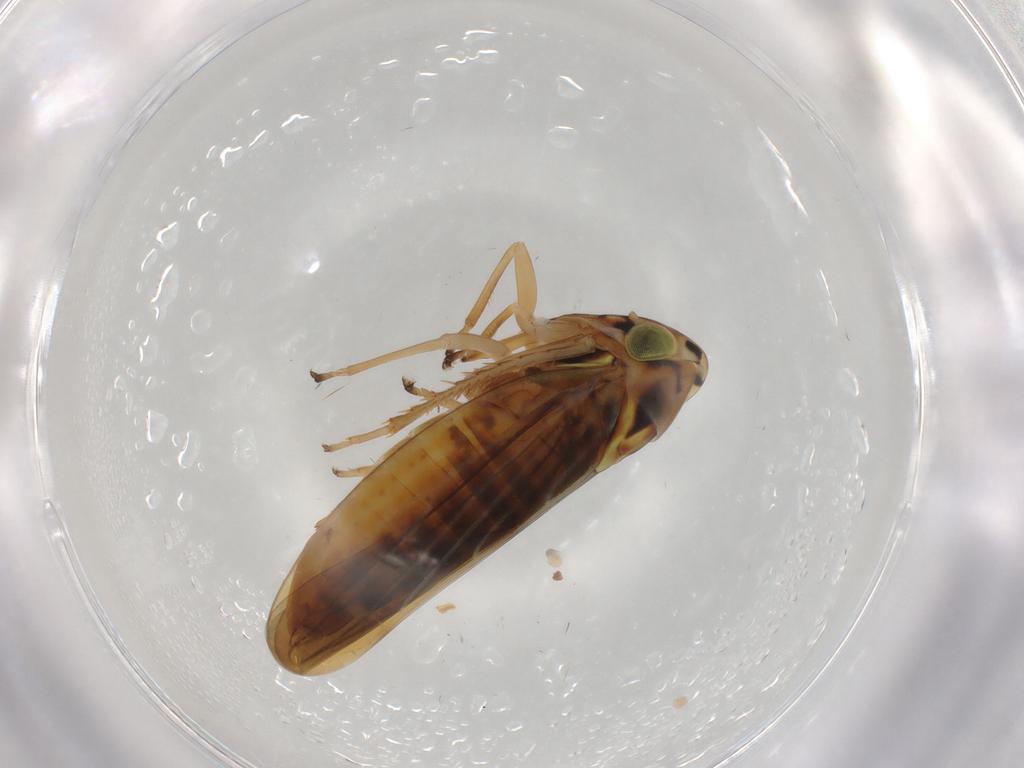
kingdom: Animalia
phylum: Arthropoda
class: Insecta
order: Hemiptera
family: Cicadellidae
